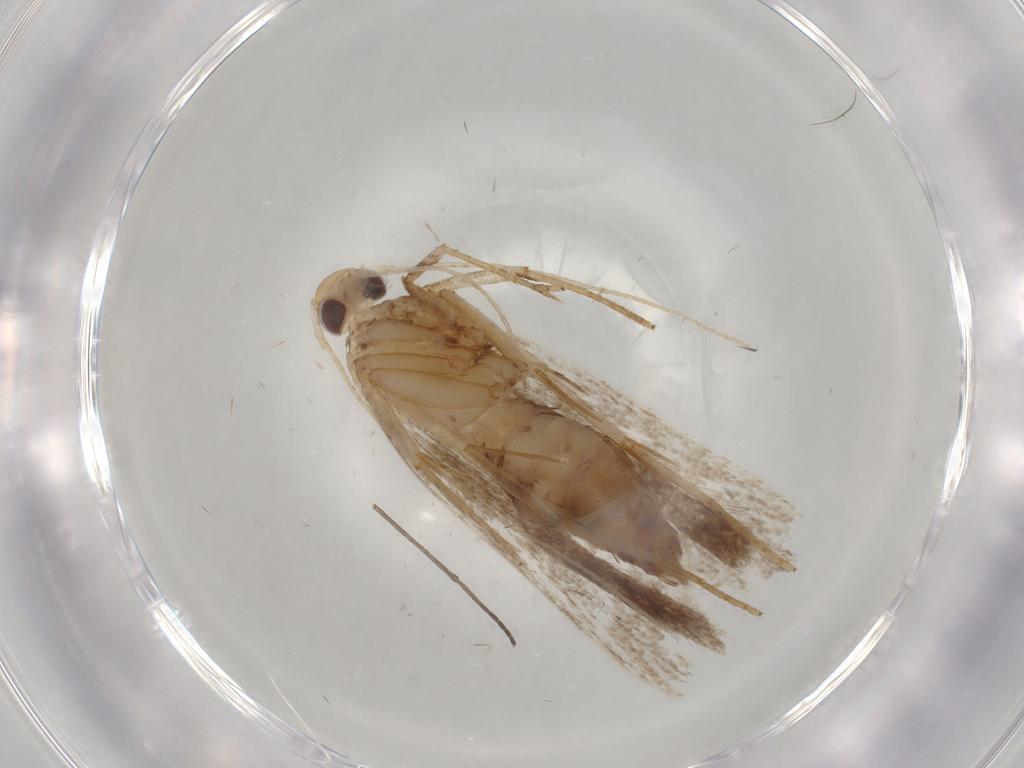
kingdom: Animalia
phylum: Arthropoda
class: Insecta
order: Lepidoptera
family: Gelechiidae
